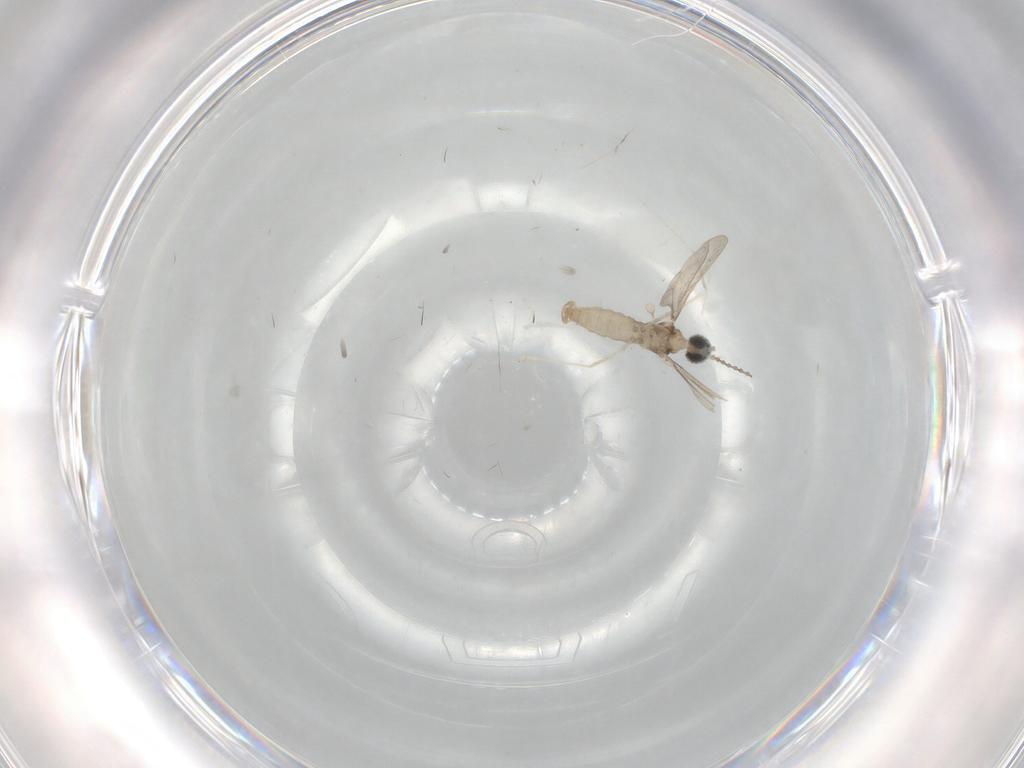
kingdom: Animalia
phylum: Arthropoda
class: Insecta
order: Diptera
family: Cecidomyiidae
